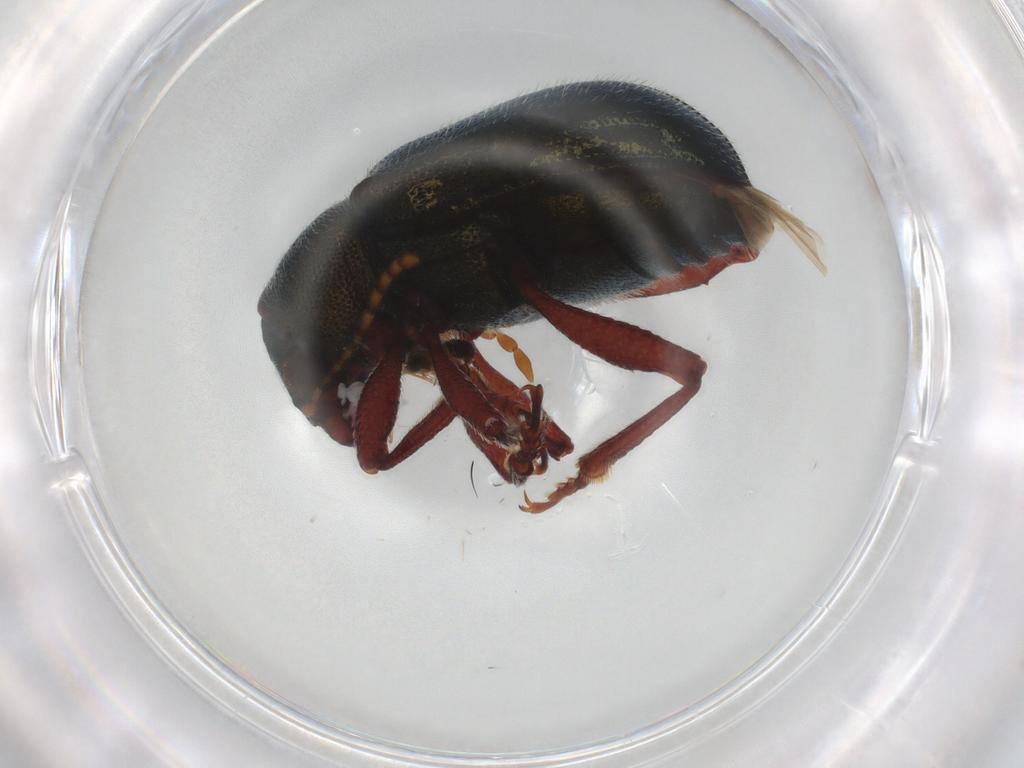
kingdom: Animalia
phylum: Arthropoda
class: Insecta
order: Coleoptera
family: Chrysomelidae
